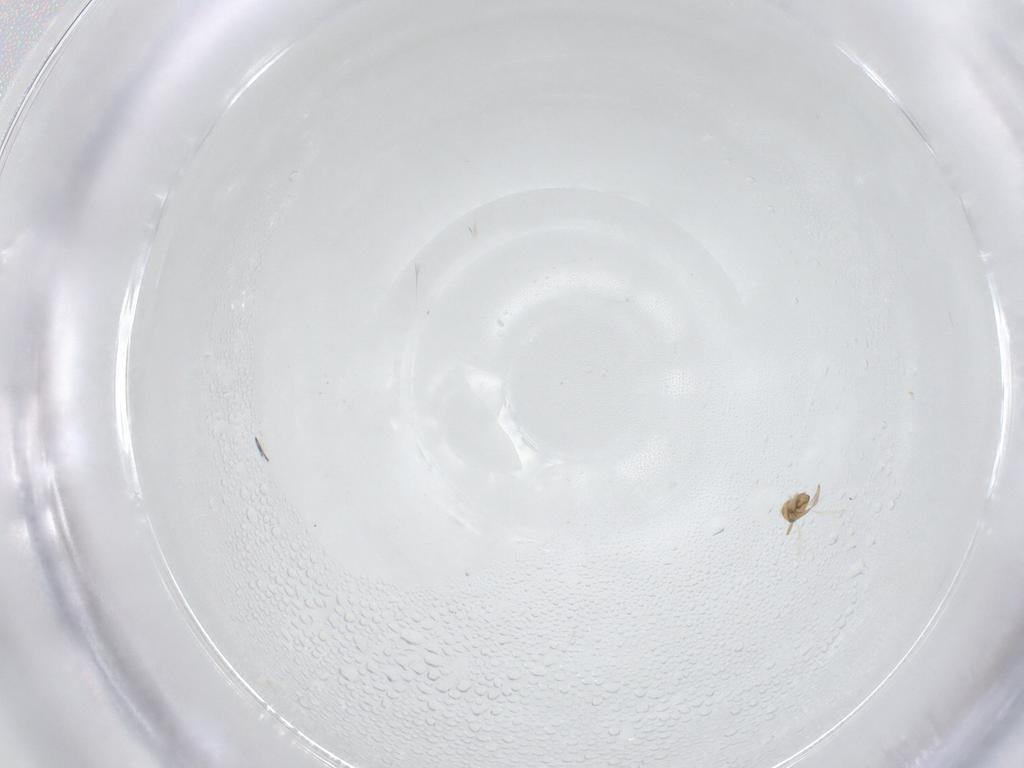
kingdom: Animalia
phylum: Arthropoda
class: Insecta
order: Hymenoptera
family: Aphelinidae
